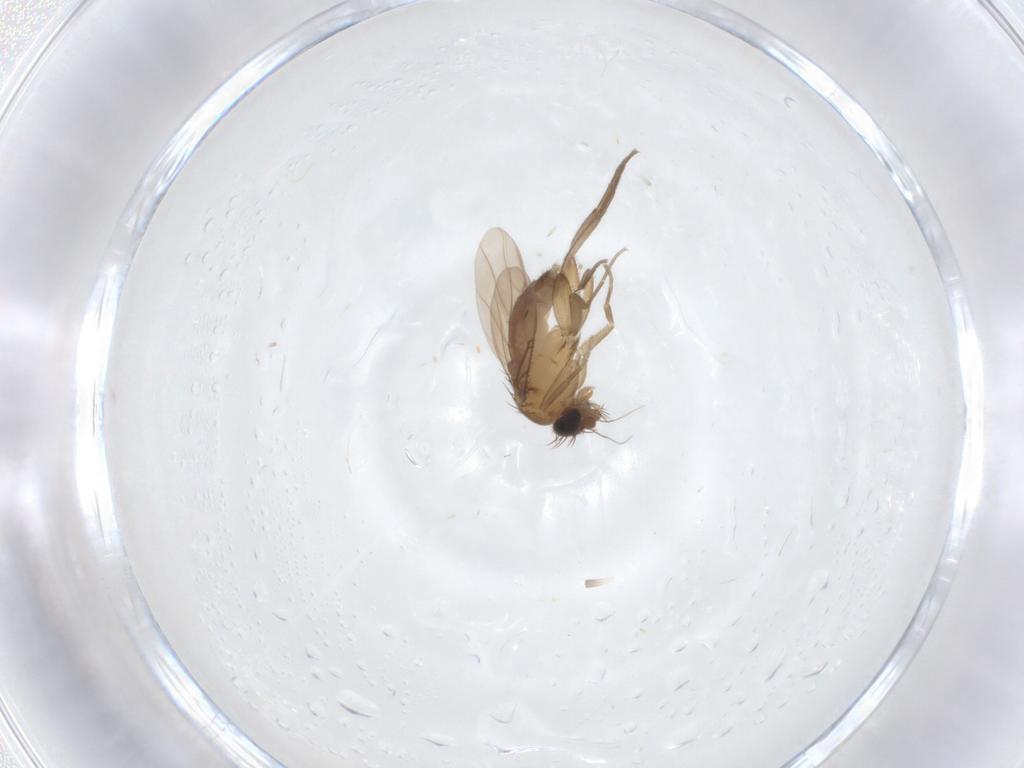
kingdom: Animalia
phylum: Arthropoda
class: Insecta
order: Diptera
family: Phoridae
